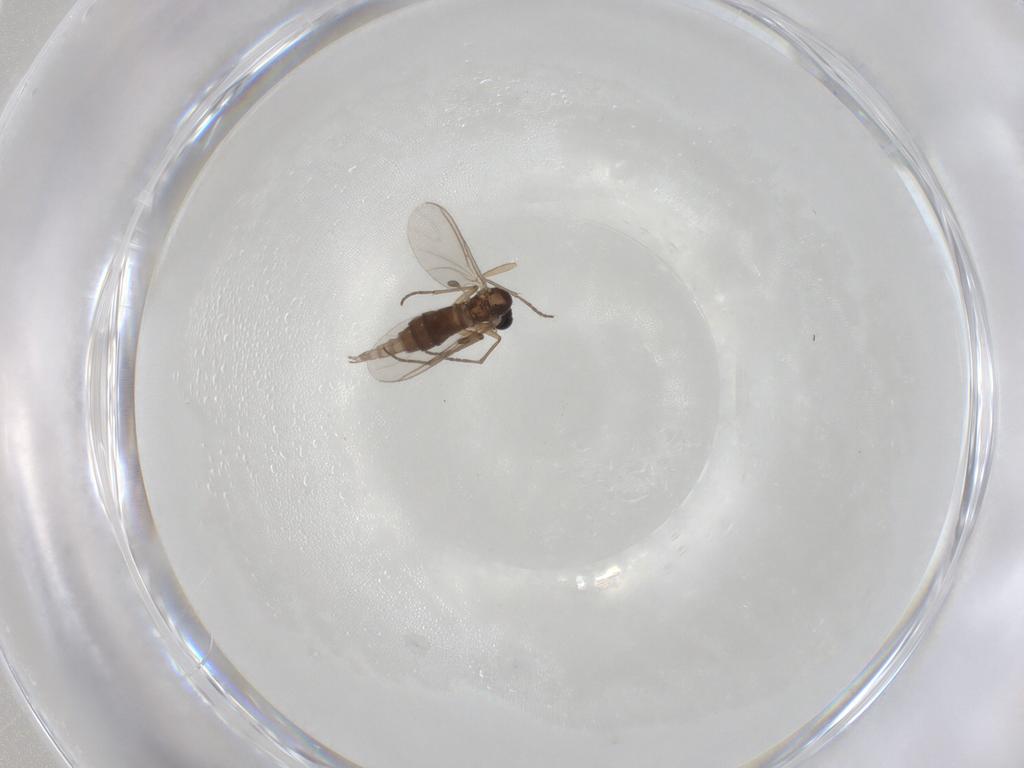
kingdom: Animalia
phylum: Arthropoda
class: Insecta
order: Diptera
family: Sciaridae
